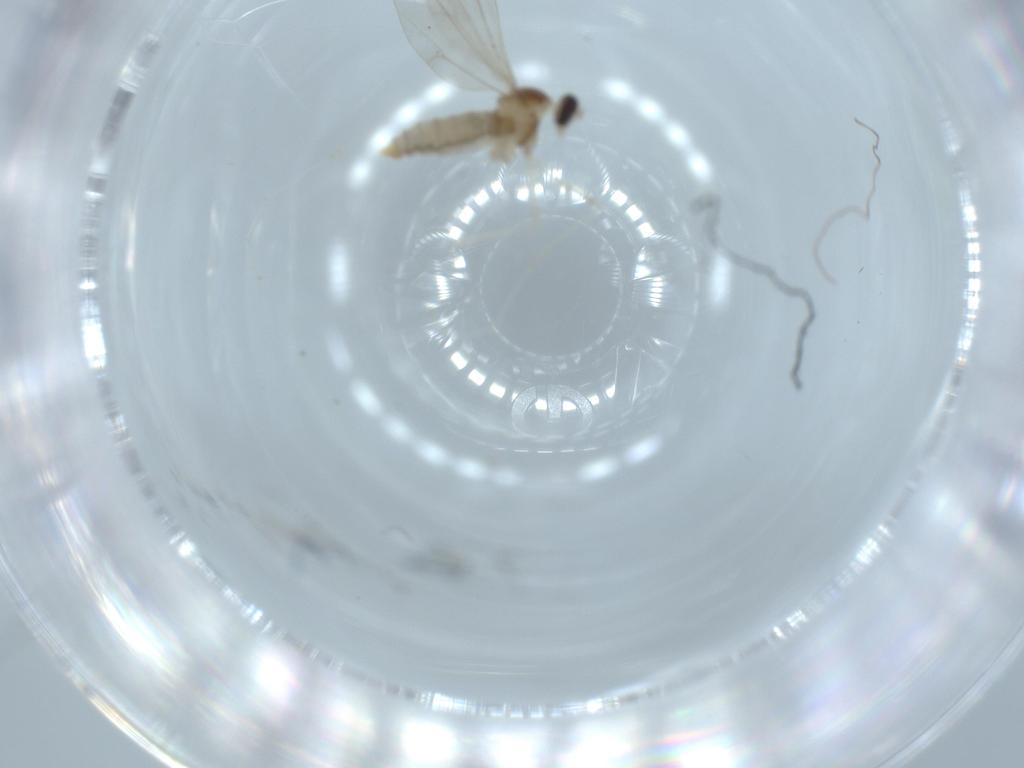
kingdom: Animalia
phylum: Arthropoda
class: Insecta
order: Diptera
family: Cecidomyiidae
